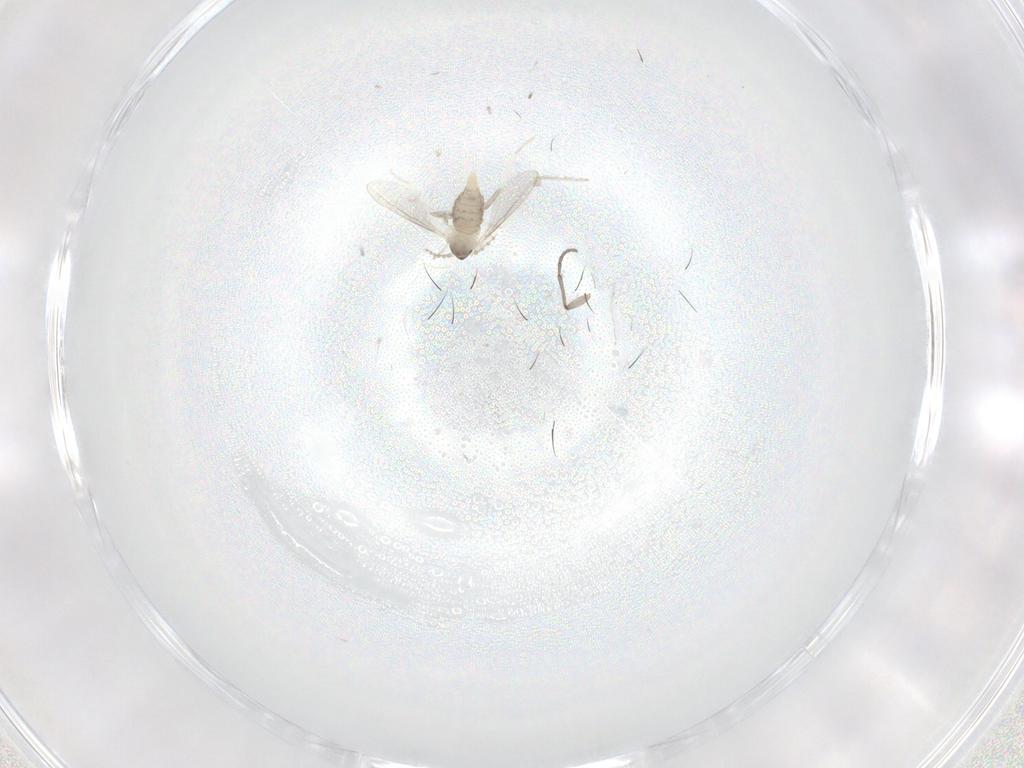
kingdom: Animalia
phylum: Arthropoda
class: Insecta
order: Diptera
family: Cecidomyiidae
